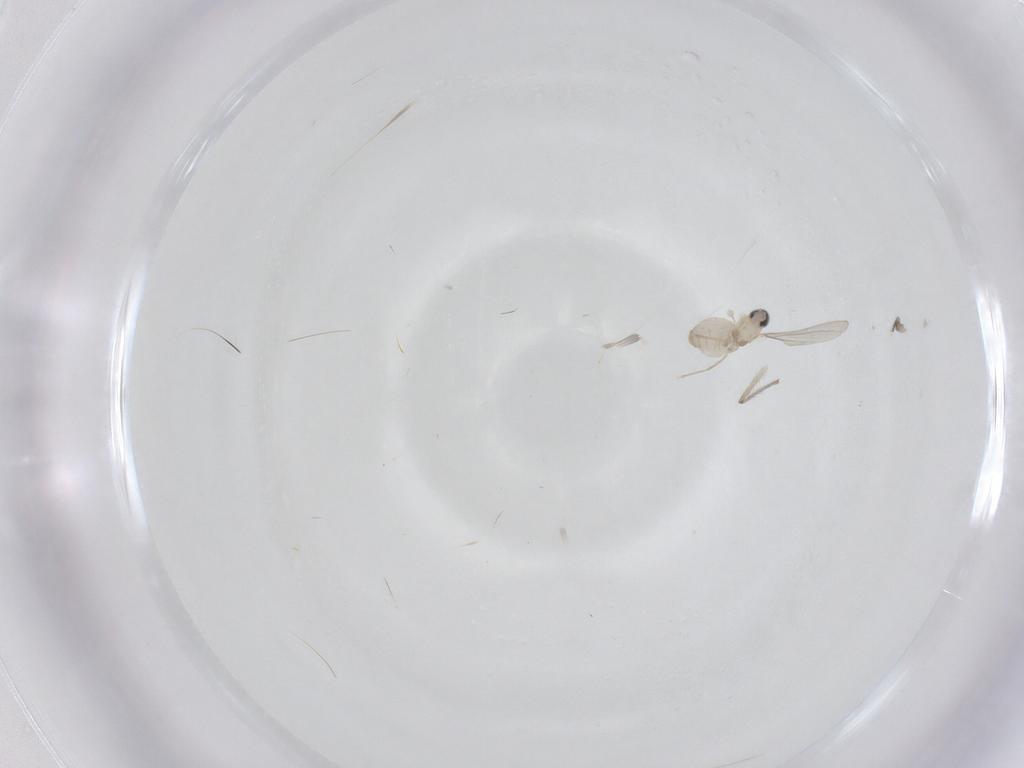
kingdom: Animalia
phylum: Arthropoda
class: Insecta
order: Diptera
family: Cecidomyiidae
